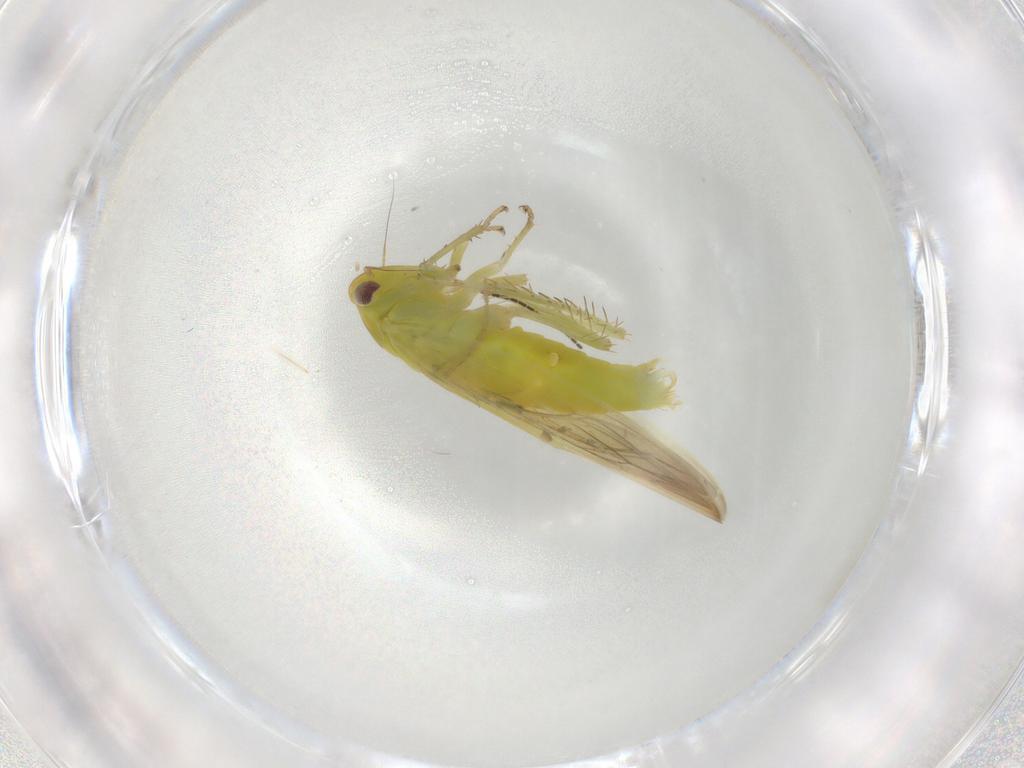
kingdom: Animalia
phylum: Arthropoda
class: Insecta
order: Hemiptera
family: Cicadellidae
